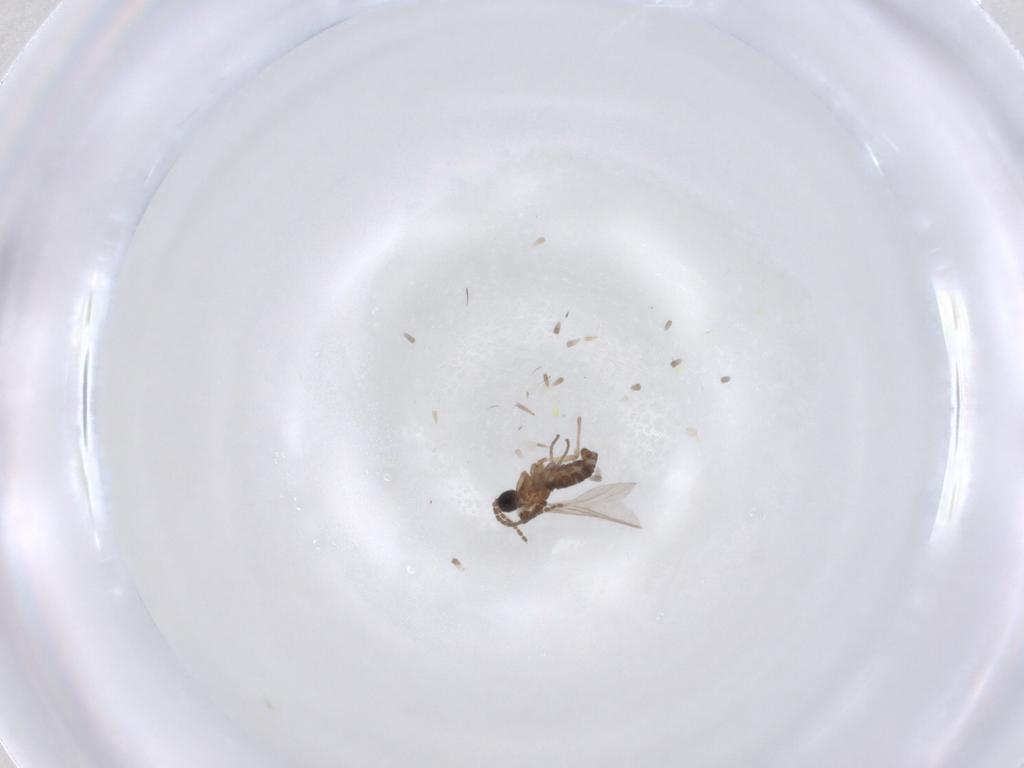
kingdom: Animalia
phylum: Arthropoda
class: Insecta
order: Diptera
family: Sciaridae
